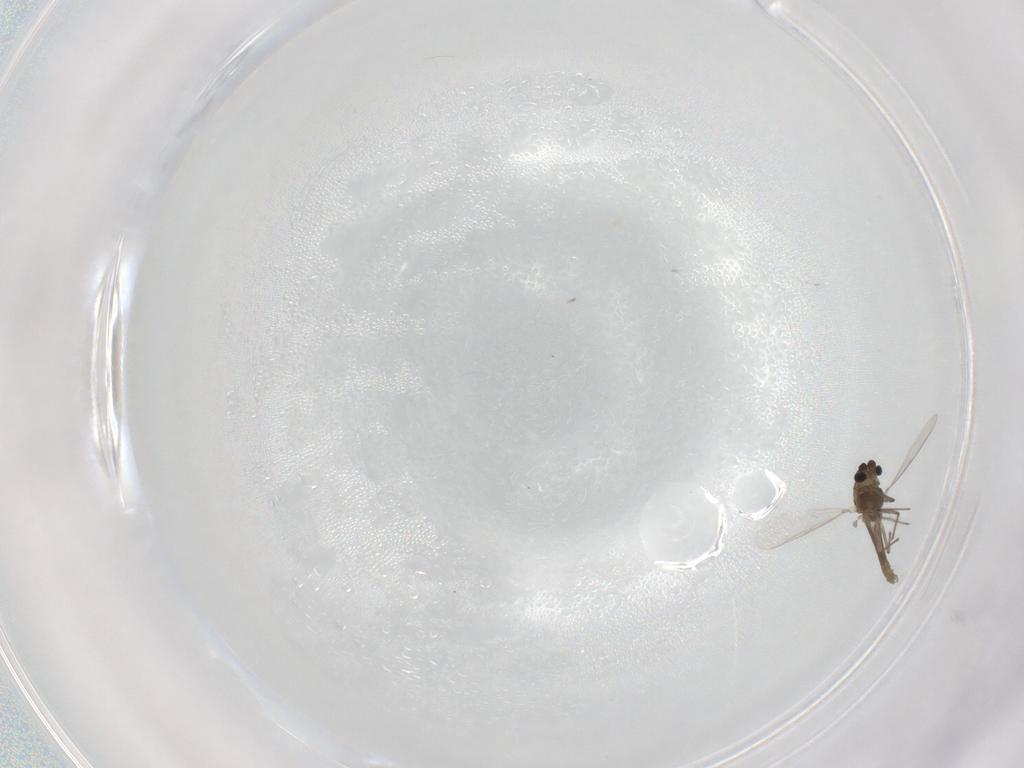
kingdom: Animalia
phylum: Arthropoda
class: Insecta
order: Diptera
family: Chironomidae
